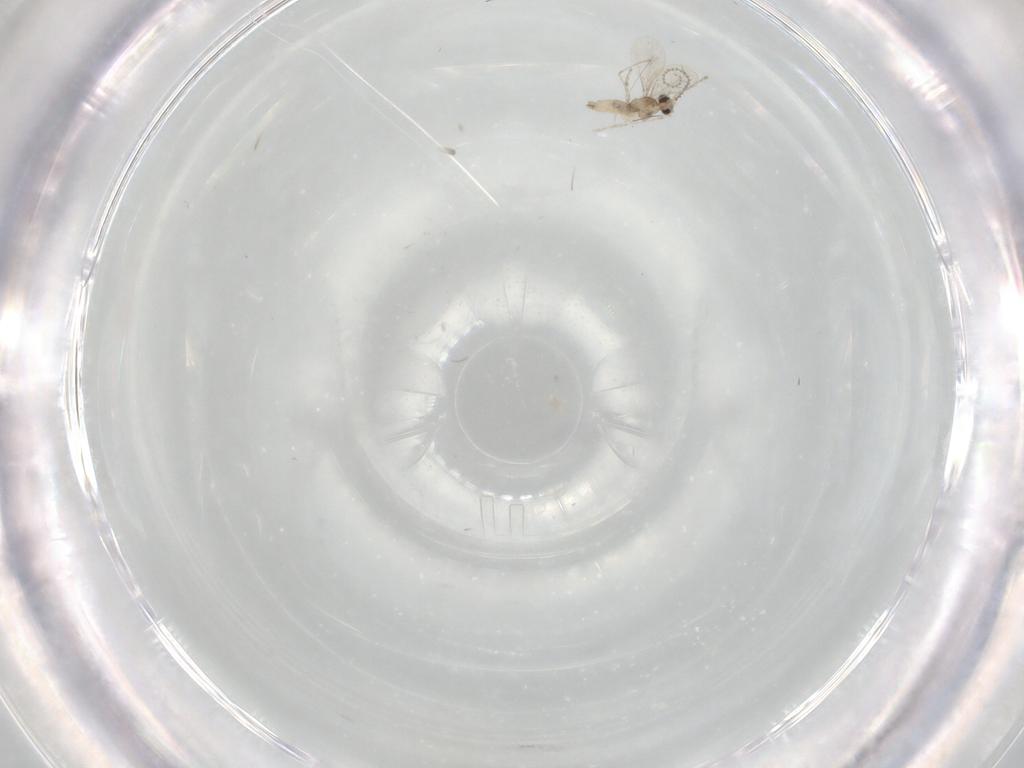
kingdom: Animalia
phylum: Arthropoda
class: Insecta
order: Diptera
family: Cecidomyiidae
